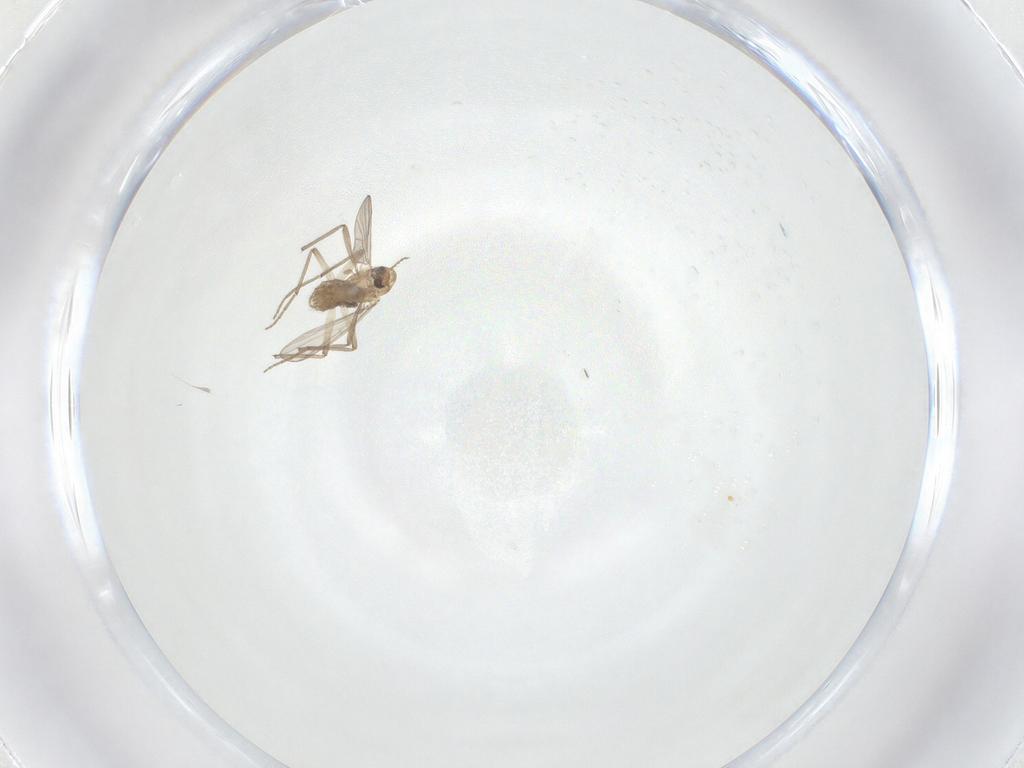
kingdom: Animalia
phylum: Arthropoda
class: Insecta
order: Diptera
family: Chironomidae
